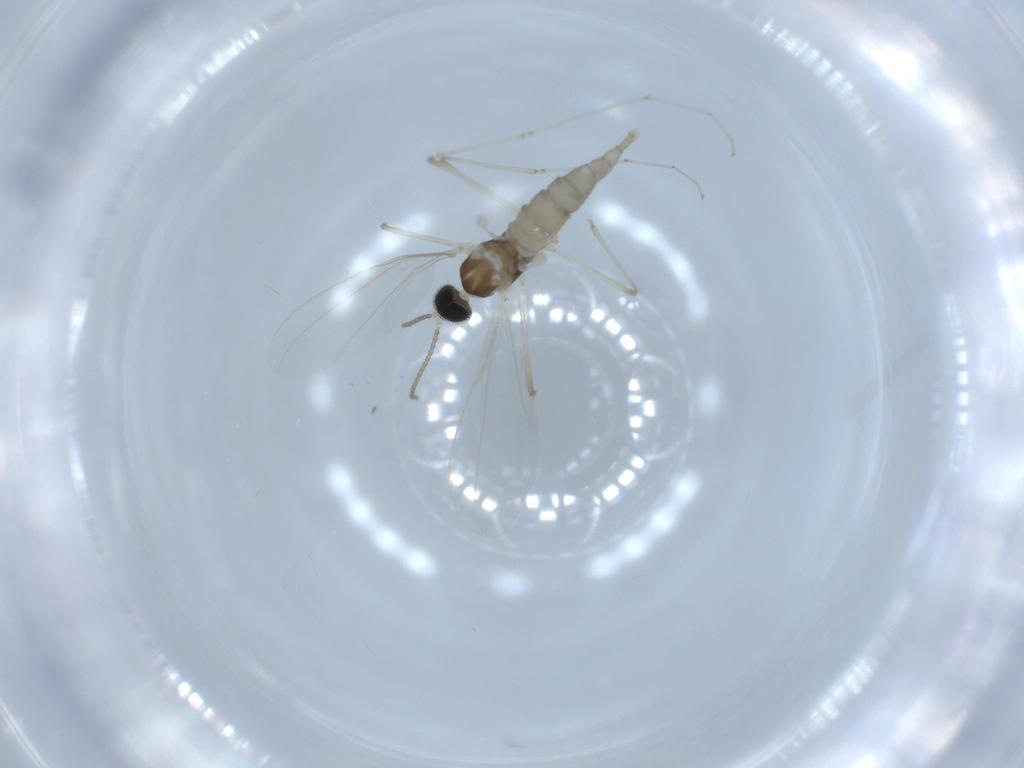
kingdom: Animalia
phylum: Arthropoda
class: Insecta
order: Diptera
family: Cecidomyiidae
